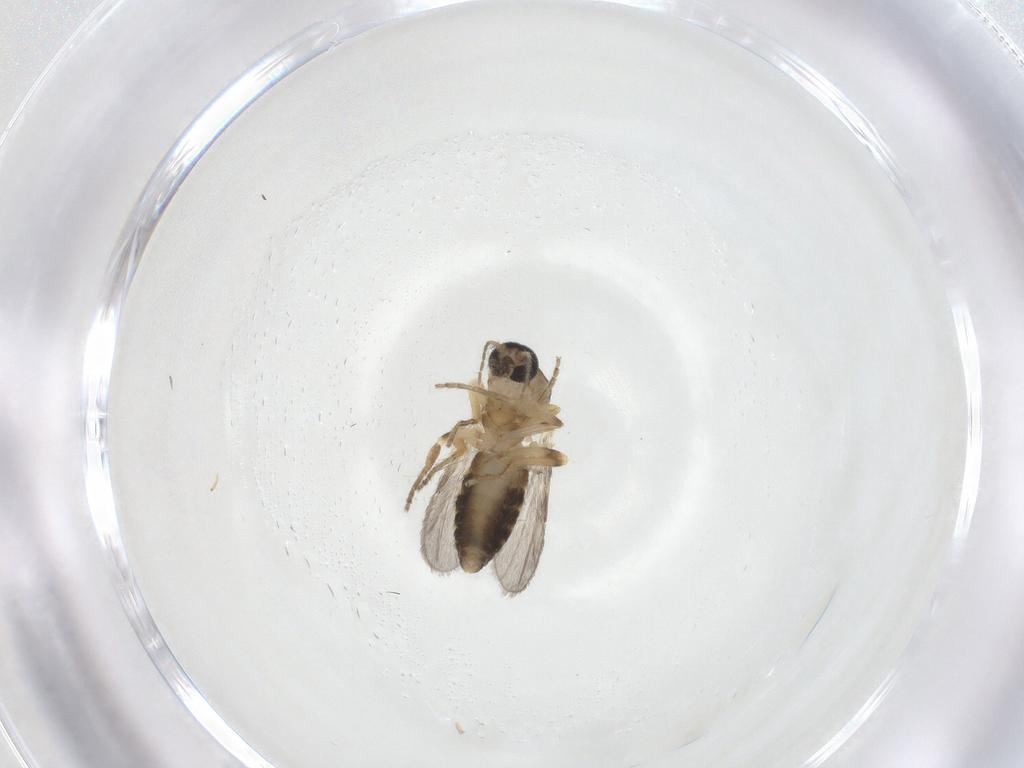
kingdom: Animalia
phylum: Arthropoda
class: Insecta
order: Diptera
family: Ceratopogonidae
